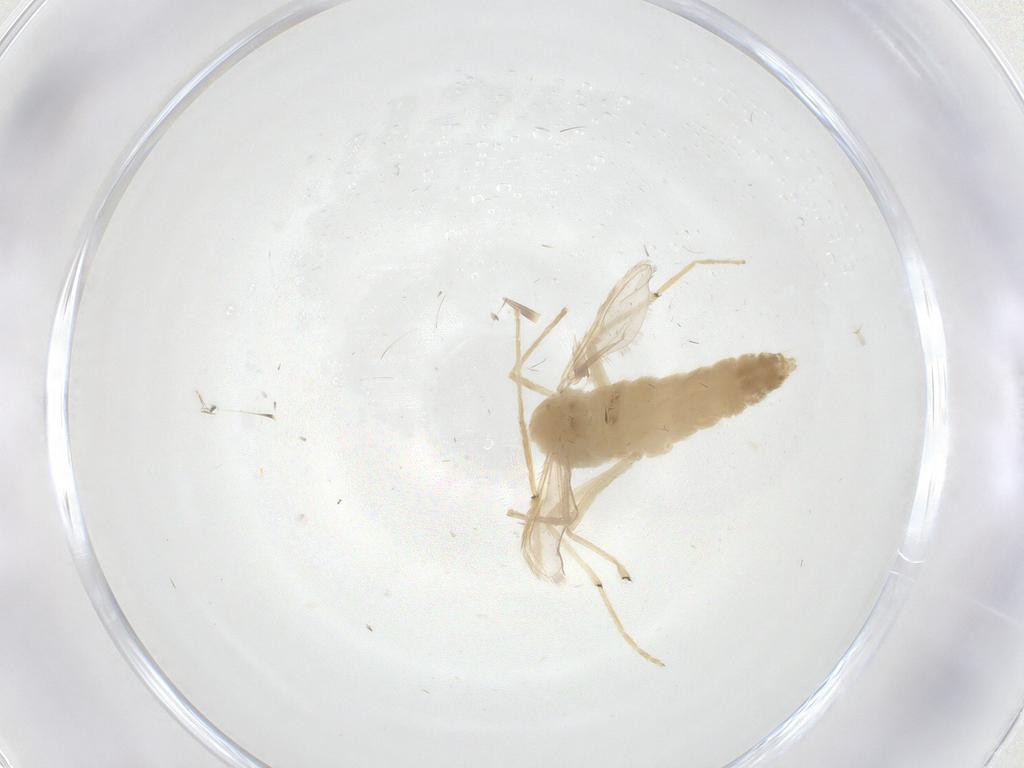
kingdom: Animalia
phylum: Arthropoda
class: Insecta
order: Diptera
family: Chironomidae
